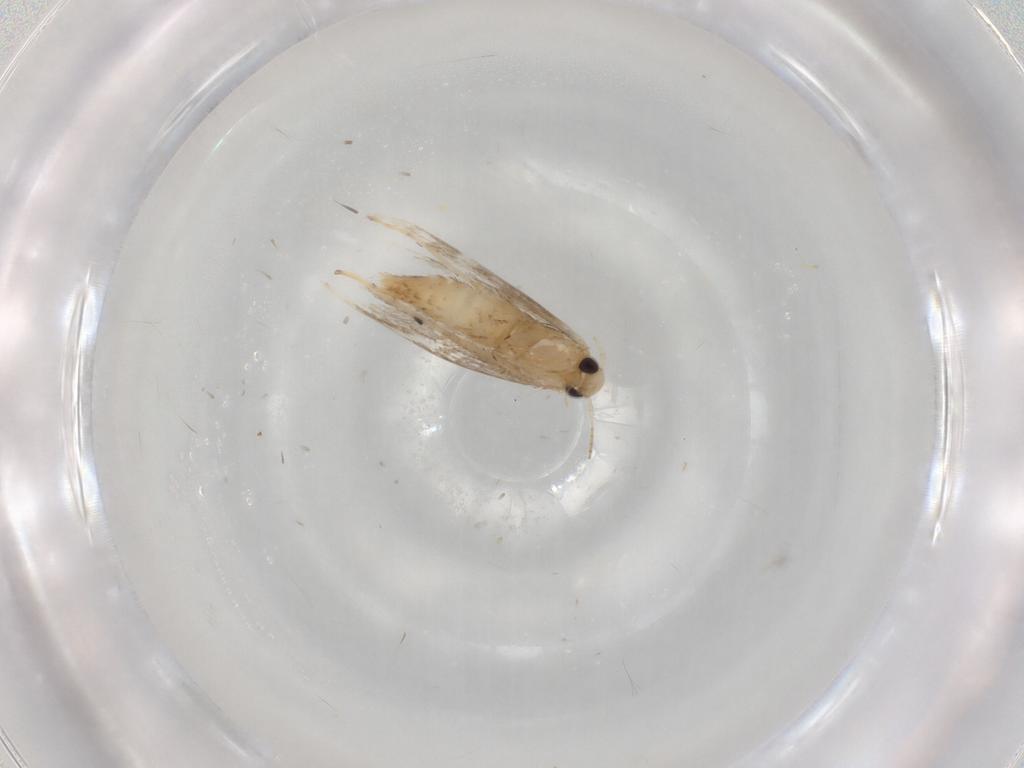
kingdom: Animalia
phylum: Arthropoda
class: Insecta
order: Lepidoptera
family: Gracillariidae
